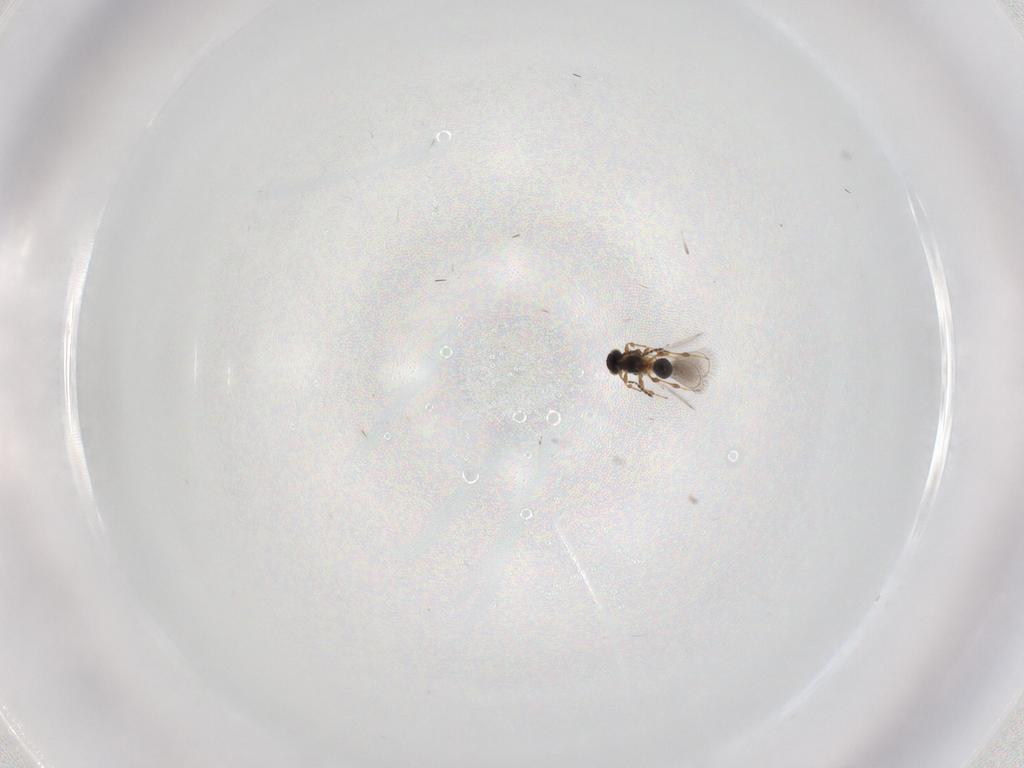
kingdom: Animalia
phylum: Arthropoda
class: Insecta
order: Hymenoptera
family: Platygastridae
